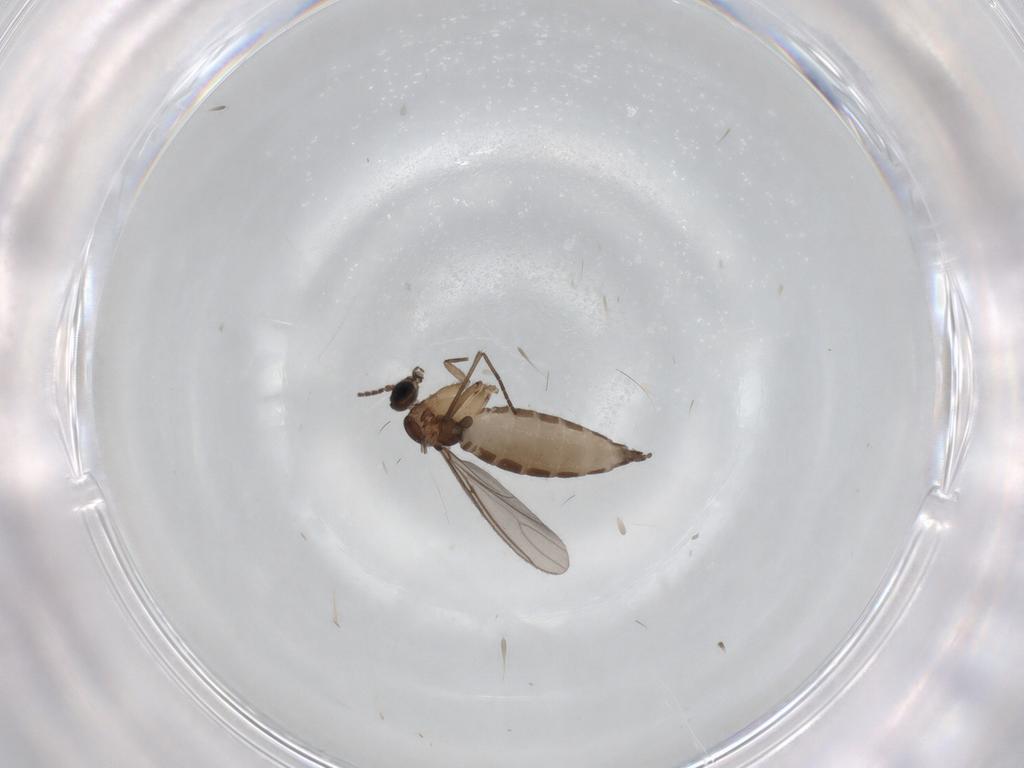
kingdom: Animalia
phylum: Arthropoda
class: Insecta
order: Diptera
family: Sciaridae
